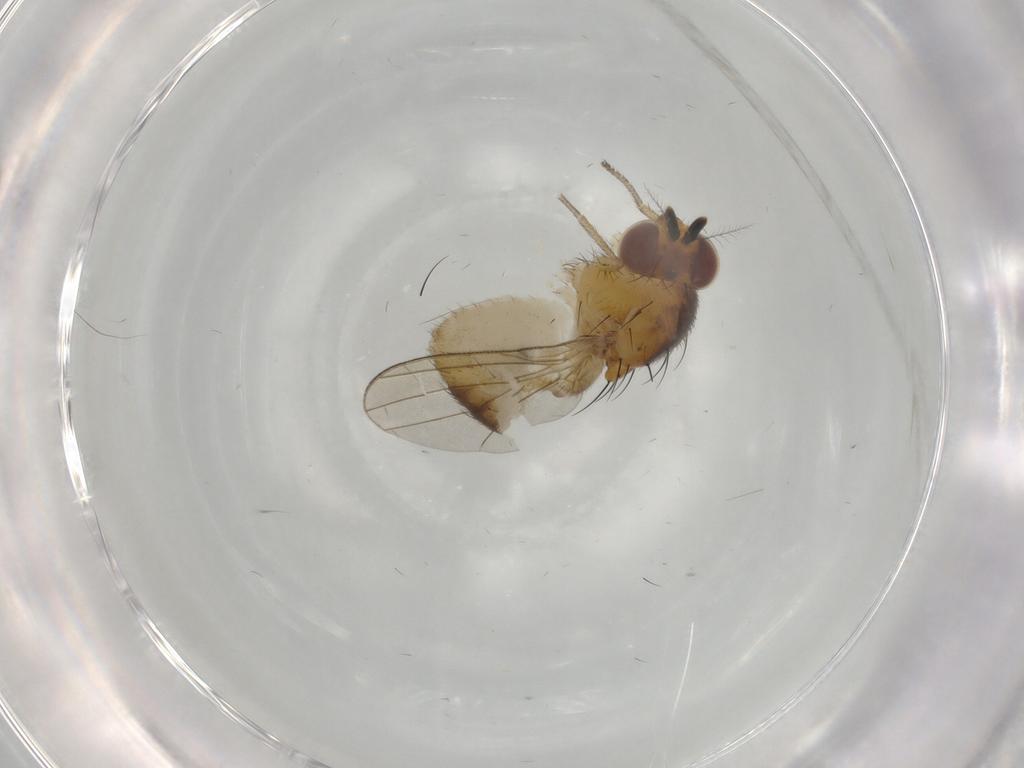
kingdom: Animalia
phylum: Arthropoda
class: Insecta
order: Diptera
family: Lauxaniidae
